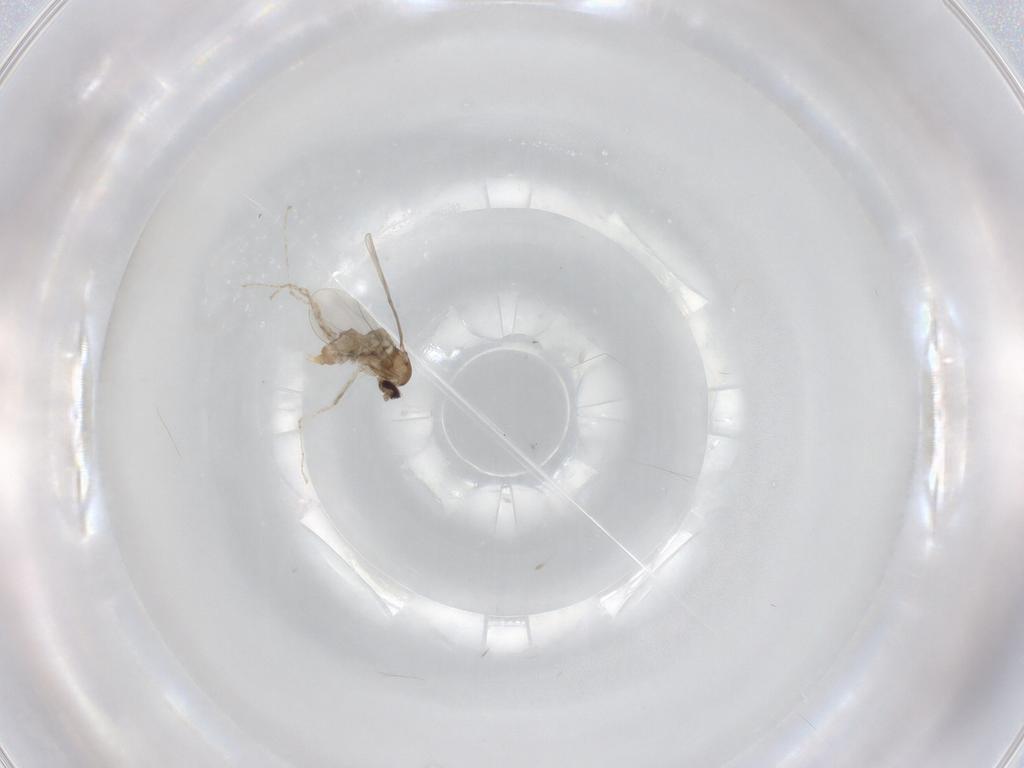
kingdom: Animalia
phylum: Arthropoda
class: Insecta
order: Diptera
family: Cecidomyiidae
